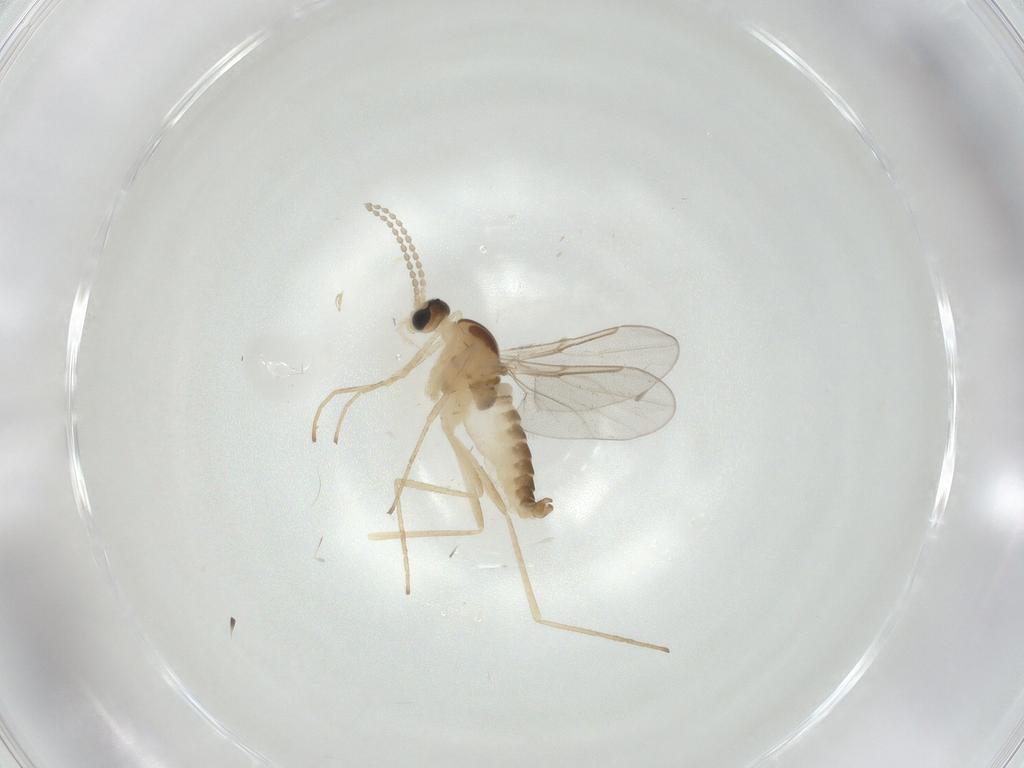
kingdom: Animalia
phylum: Arthropoda
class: Insecta
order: Diptera
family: Cecidomyiidae
